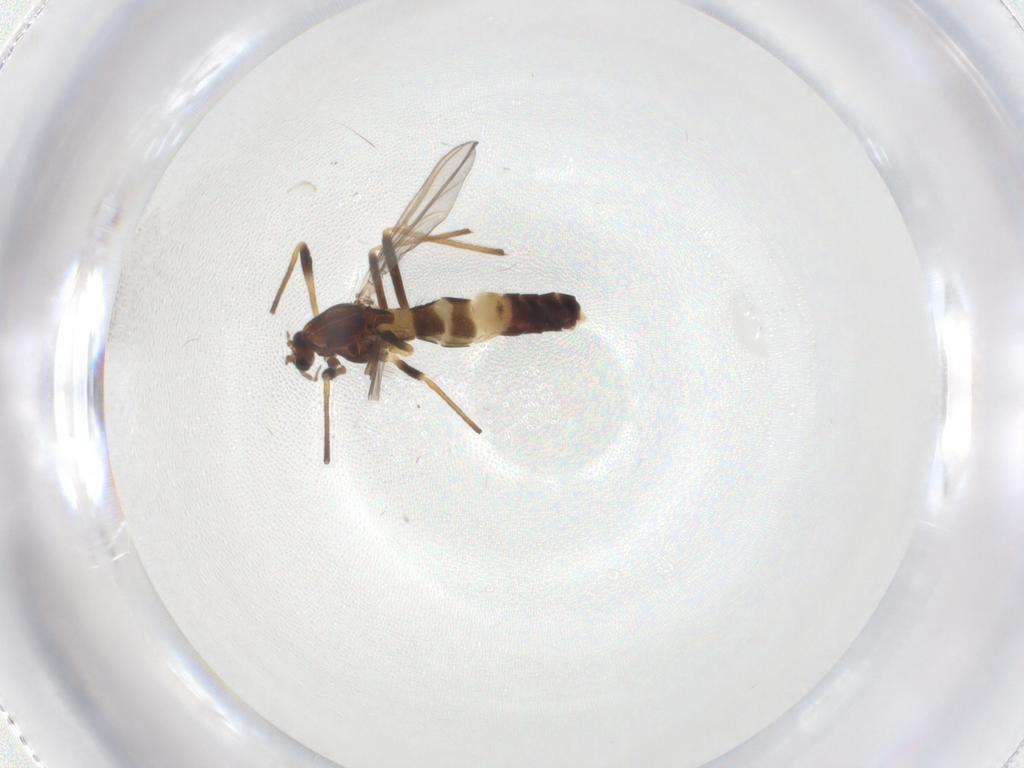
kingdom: Animalia
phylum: Arthropoda
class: Insecta
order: Diptera
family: Chironomidae
